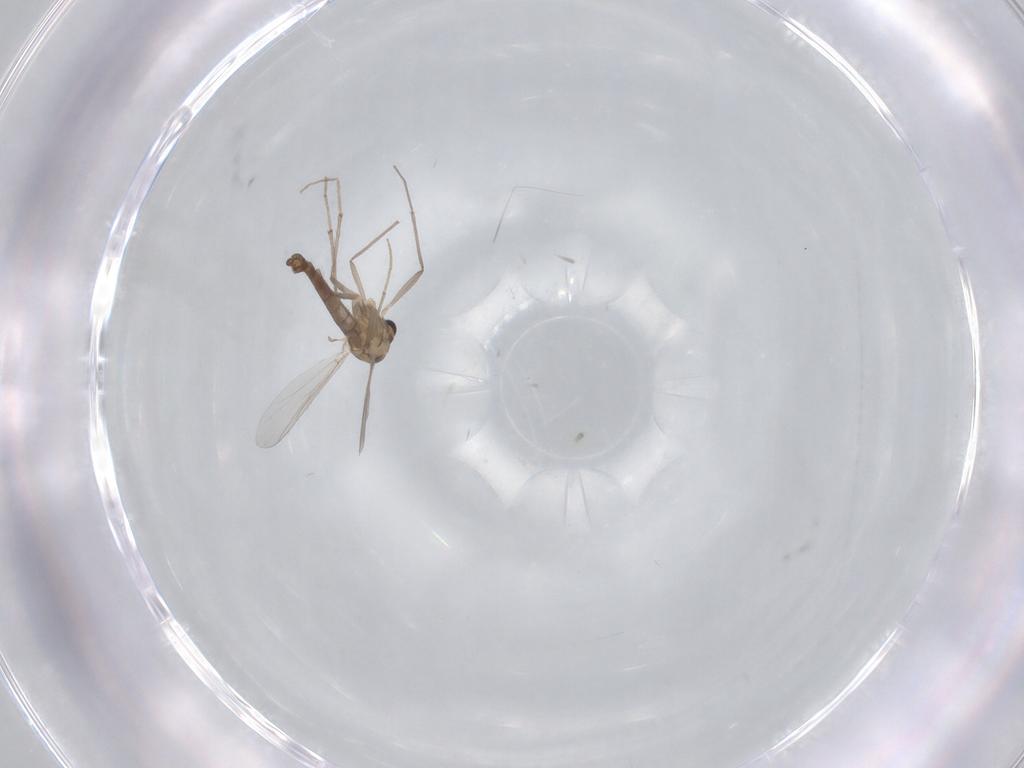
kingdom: Animalia
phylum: Arthropoda
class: Insecta
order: Diptera
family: Chironomidae
